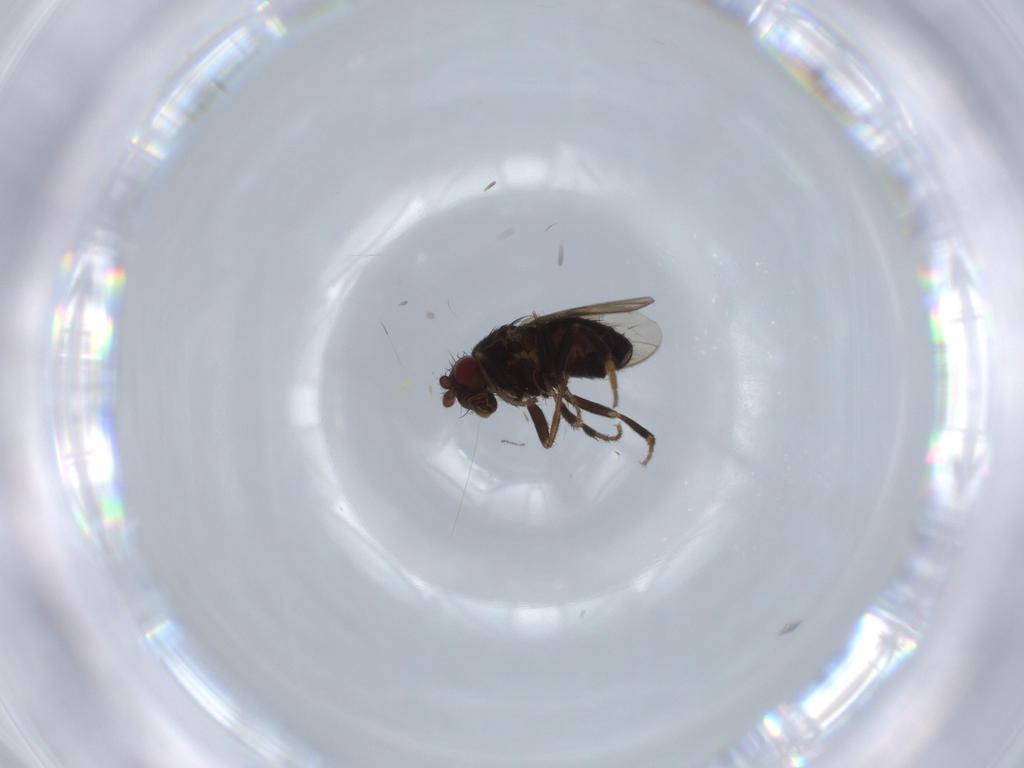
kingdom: Animalia
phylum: Arthropoda
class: Insecta
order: Diptera
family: Sphaeroceridae
